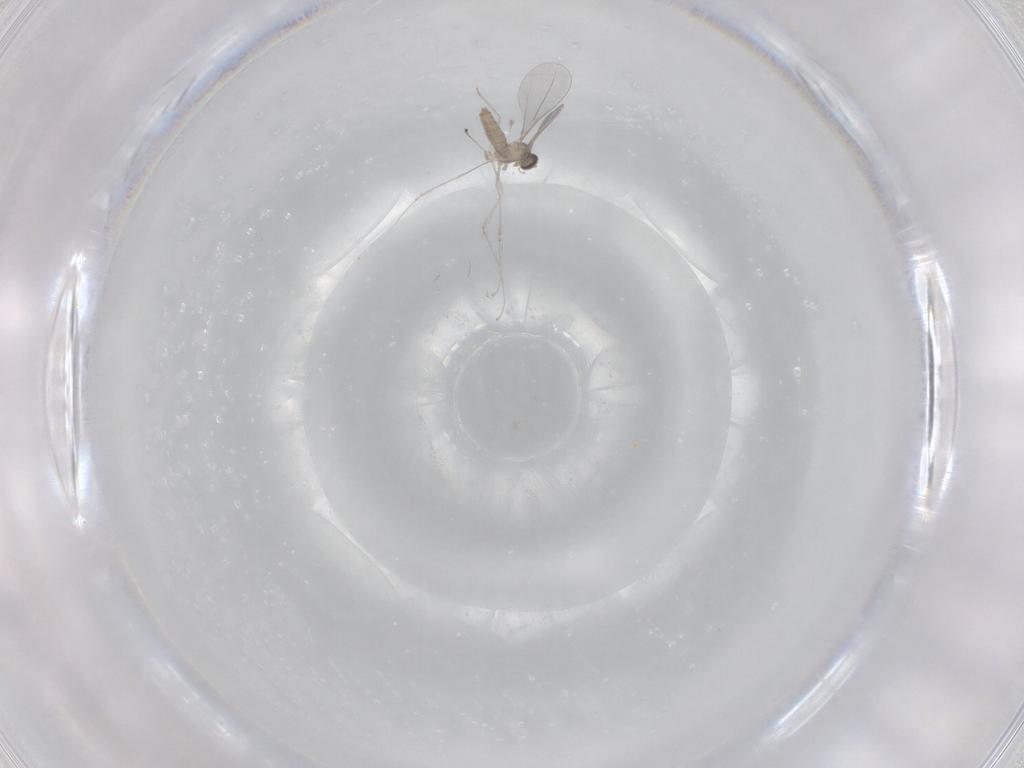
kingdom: Animalia
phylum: Arthropoda
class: Insecta
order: Diptera
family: Cecidomyiidae
